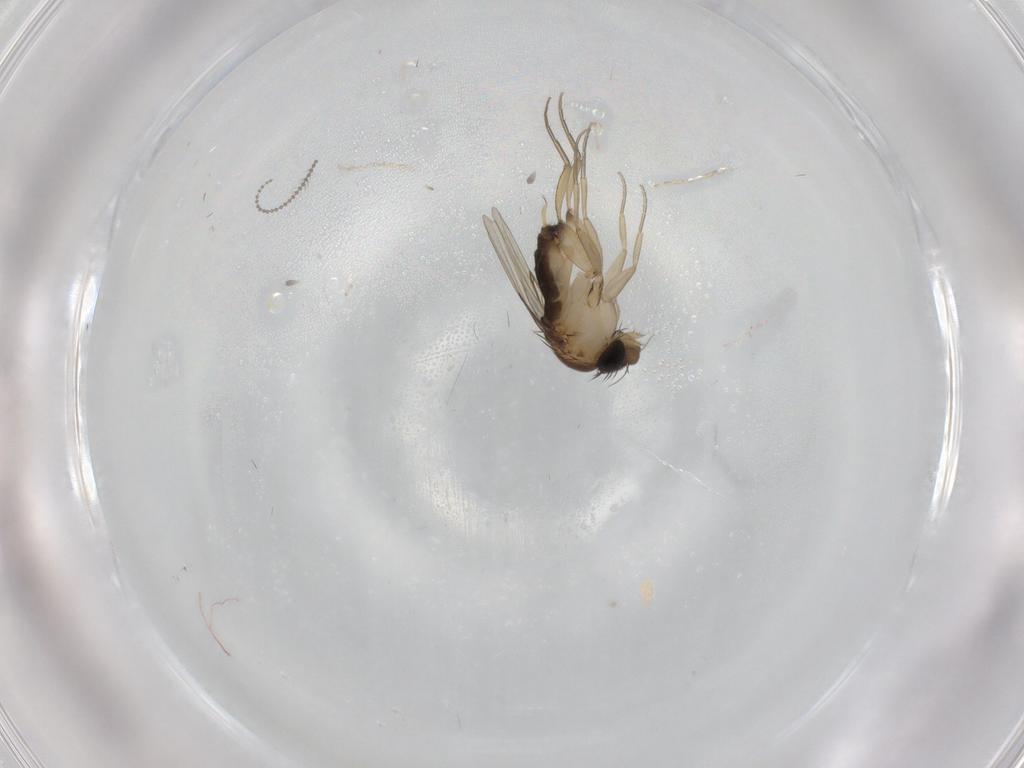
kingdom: Animalia
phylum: Arthropoda
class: Insecta
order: Diptera
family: Phoridae
